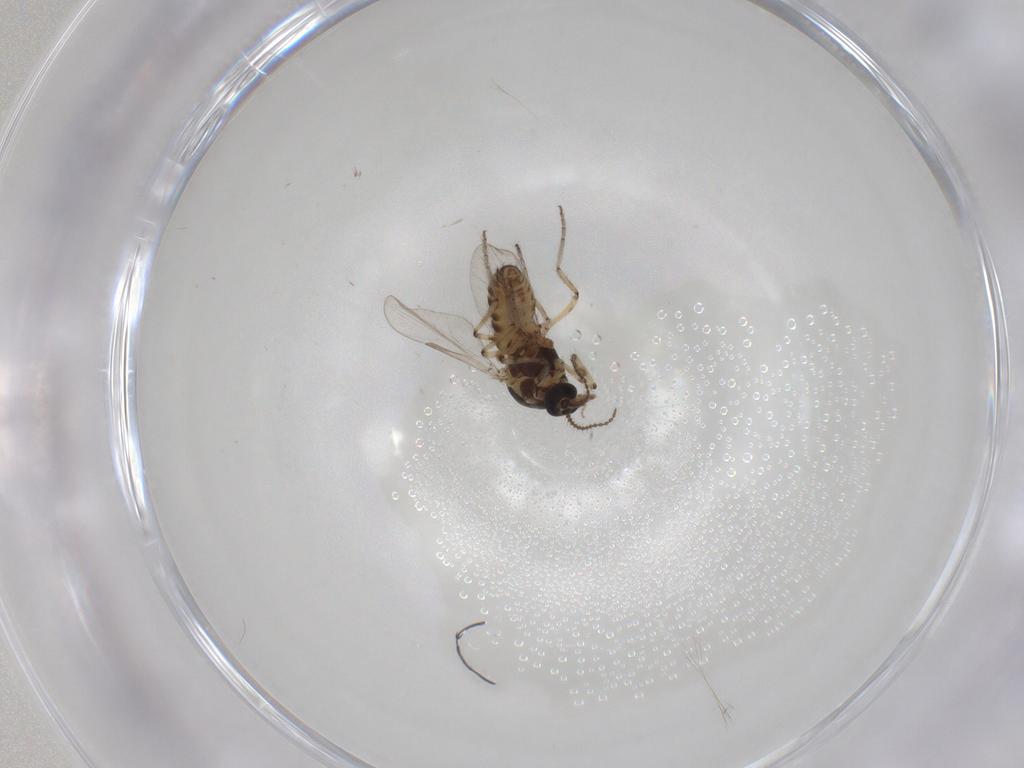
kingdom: Animalia
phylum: Arthropoda
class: Insecta
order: Diptera
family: Ceratopogonidae
